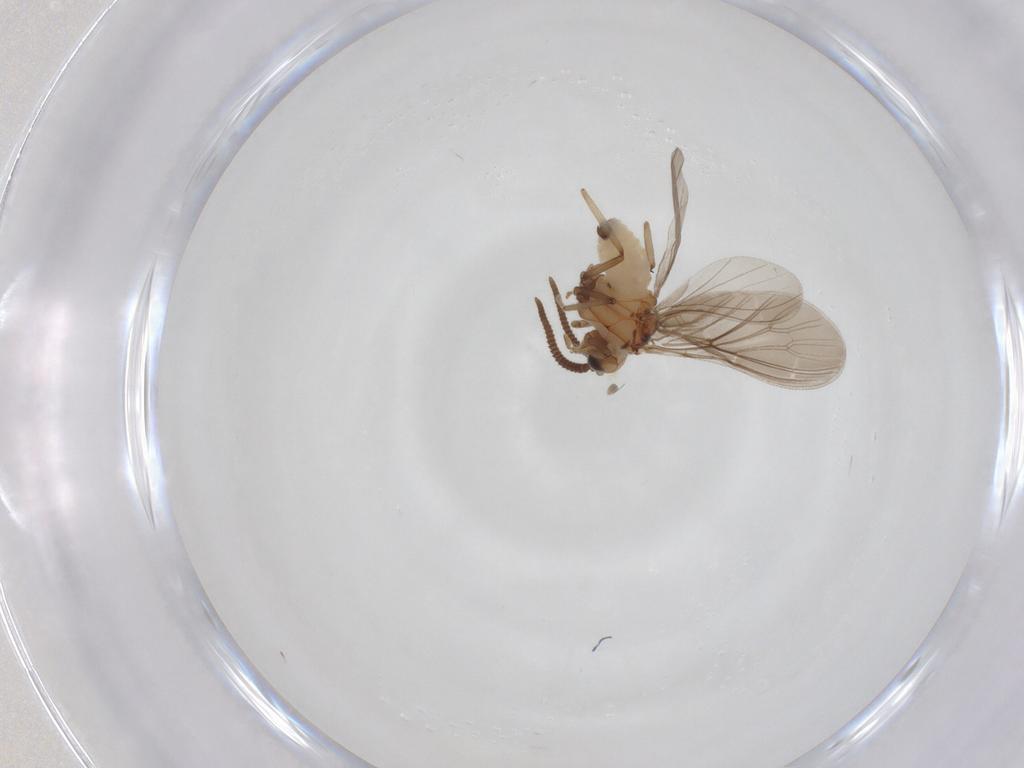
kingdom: Animalia
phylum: Arthropoda
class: Insecta
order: Neuroptera
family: Coniopterygidae
